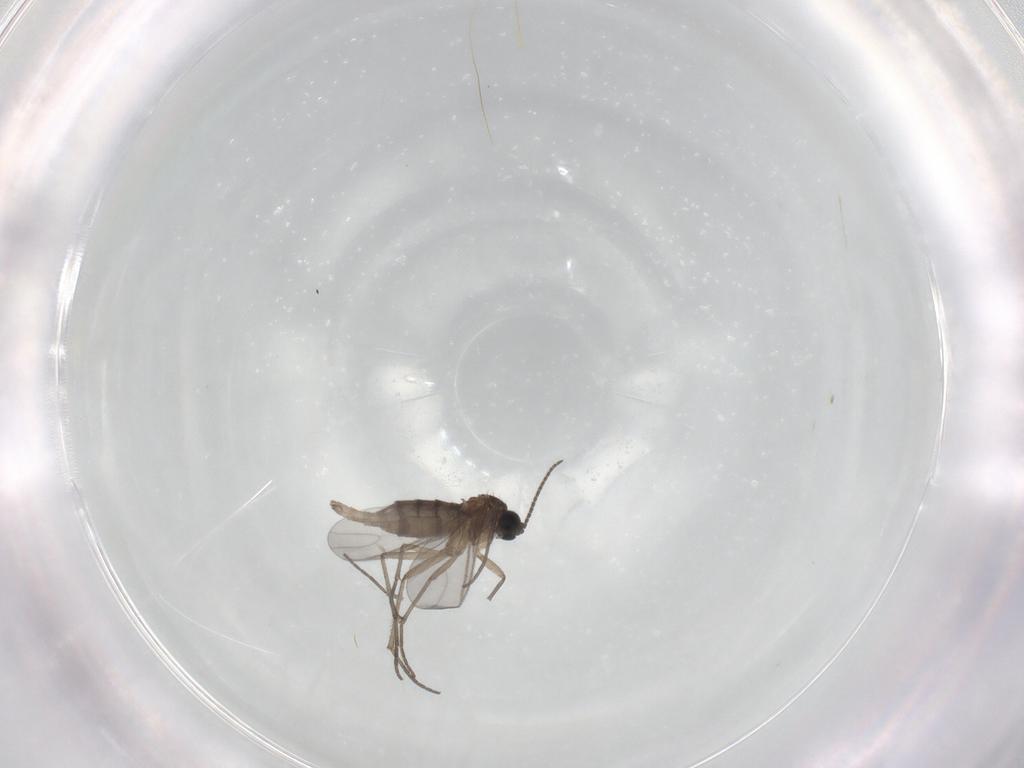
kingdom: Animalia
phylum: Arthropoda
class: Insecta
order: Diptera
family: Sciaridae
